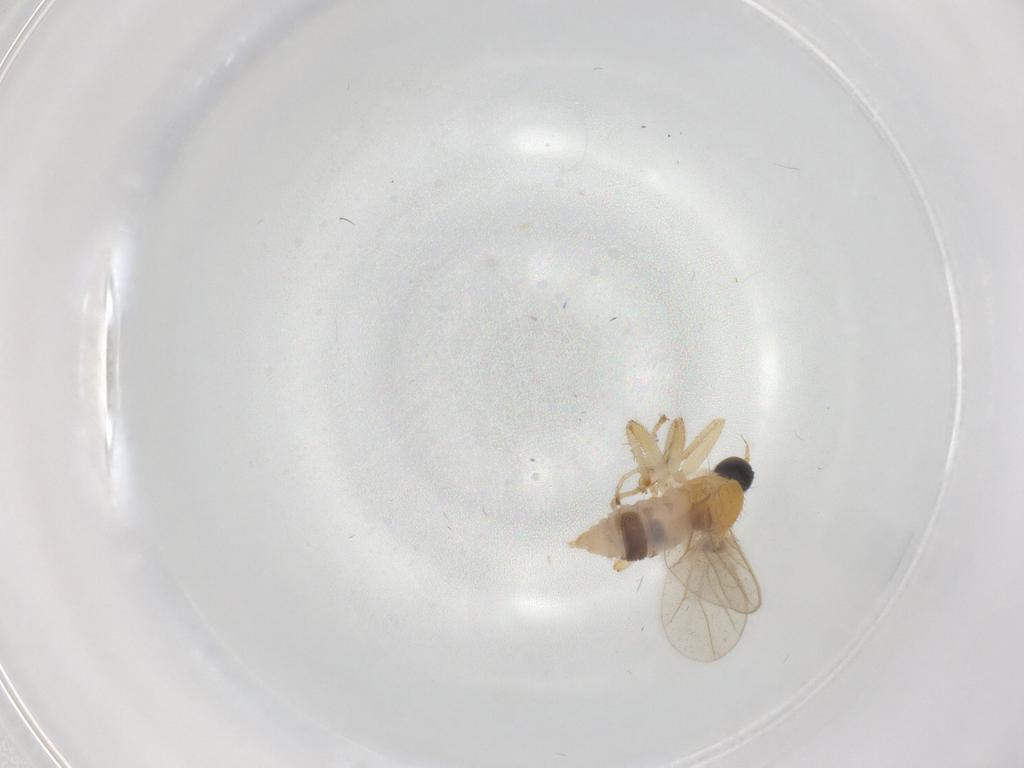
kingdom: Animalia
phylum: Arthropoda
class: Insecta
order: Diptera
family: Hybotidae
